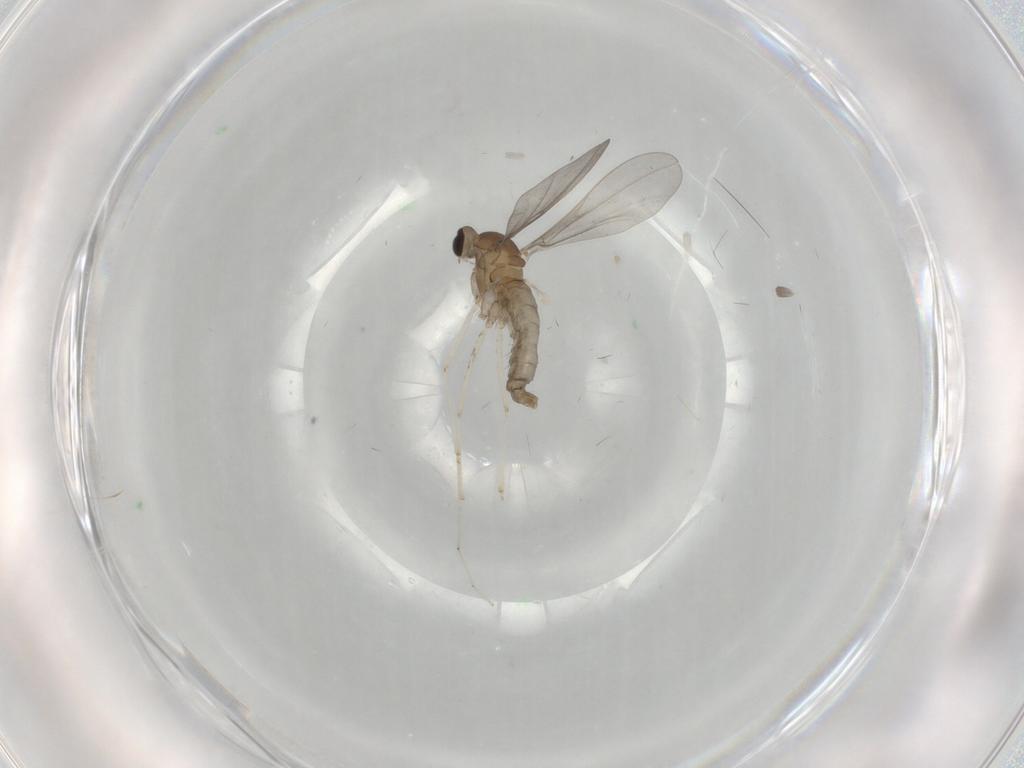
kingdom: Animalia
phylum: Arthropoda
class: Insecta
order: Diptera
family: Cecidomyiidae
